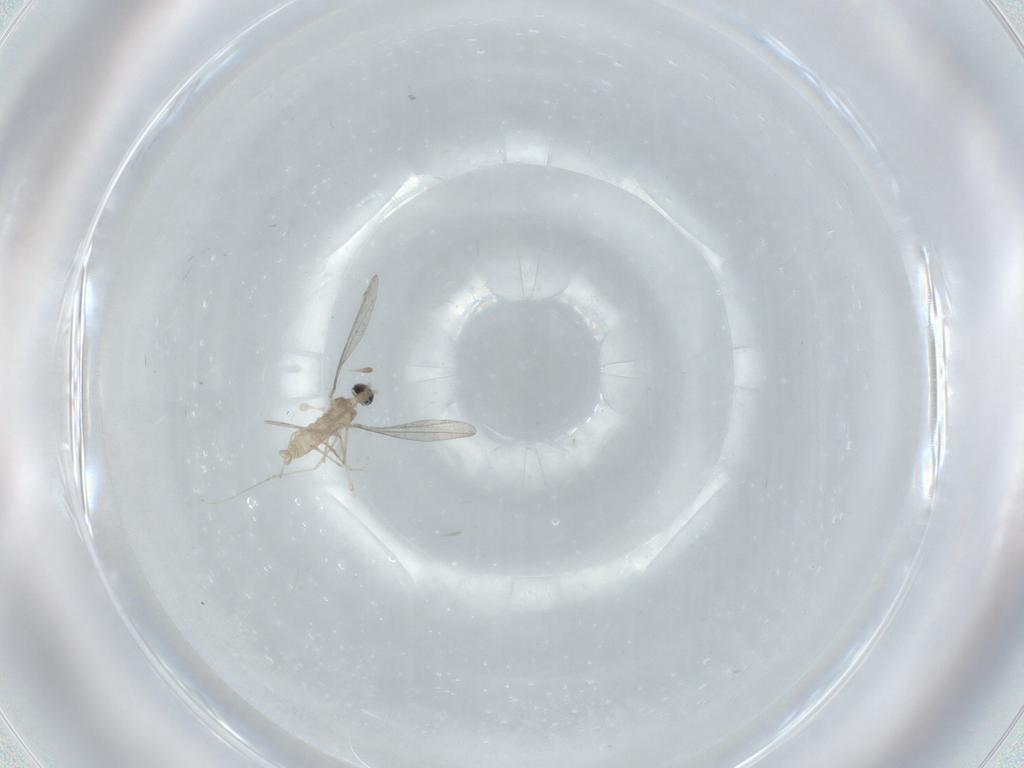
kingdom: Animalia
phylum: Arthropoda
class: Insecta
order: Diptera
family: Cecidomyiidae
